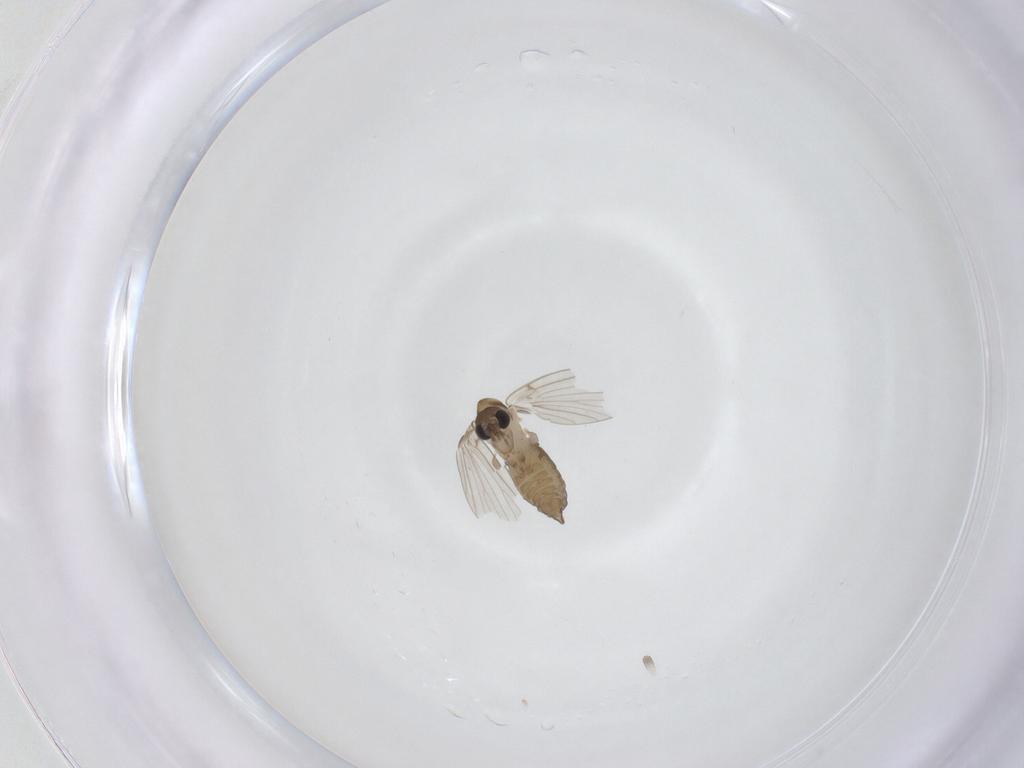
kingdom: Animalia
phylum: Arthropoda
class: Insecta
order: Diptera
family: Psychodidae
